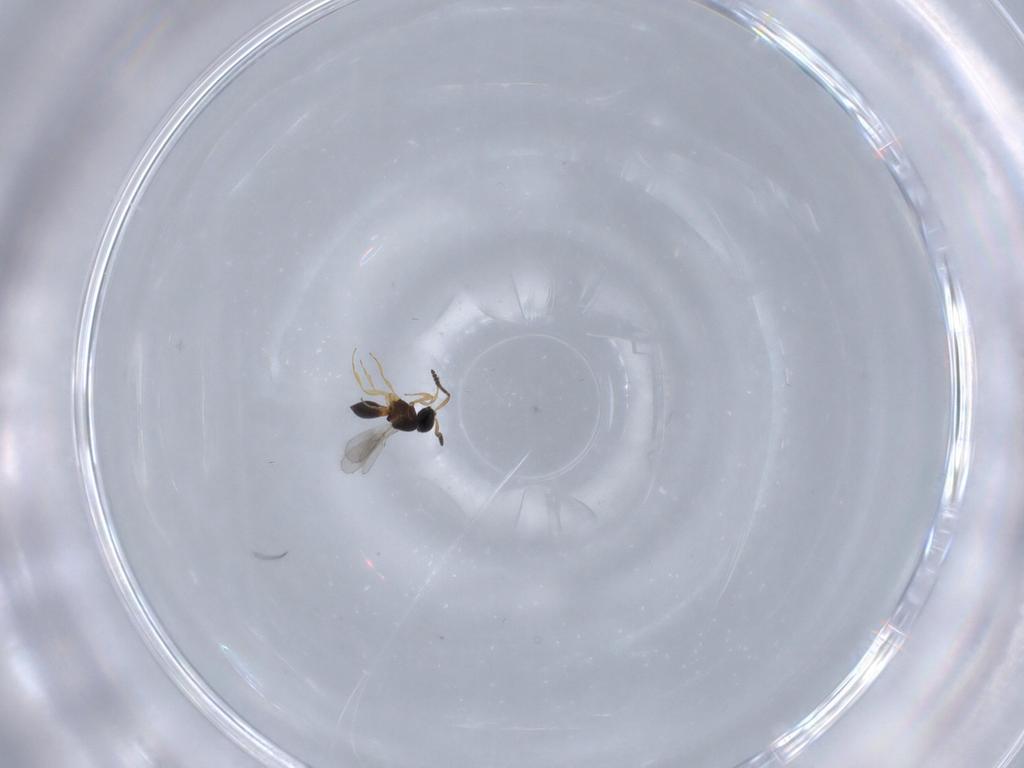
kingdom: Animalia
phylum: Arthropoda
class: Insecta
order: Hymenoptera
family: Scelionidae
